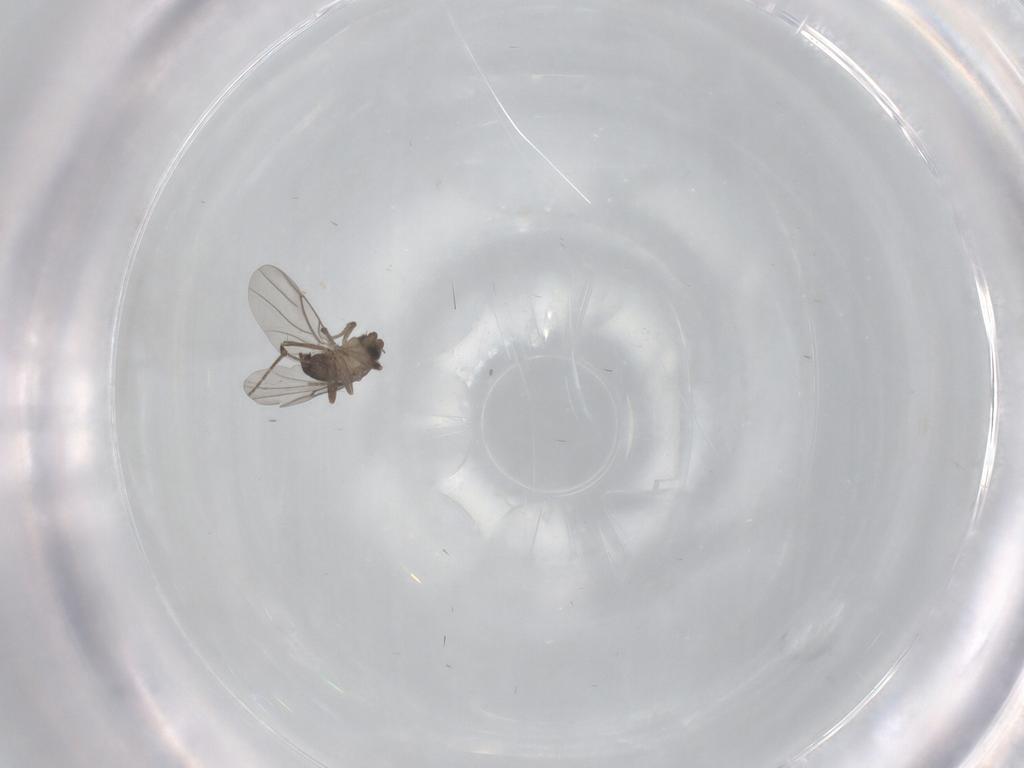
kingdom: Animalia
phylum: Arthropoda
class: Insecta
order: Diptera
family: Phoridae
